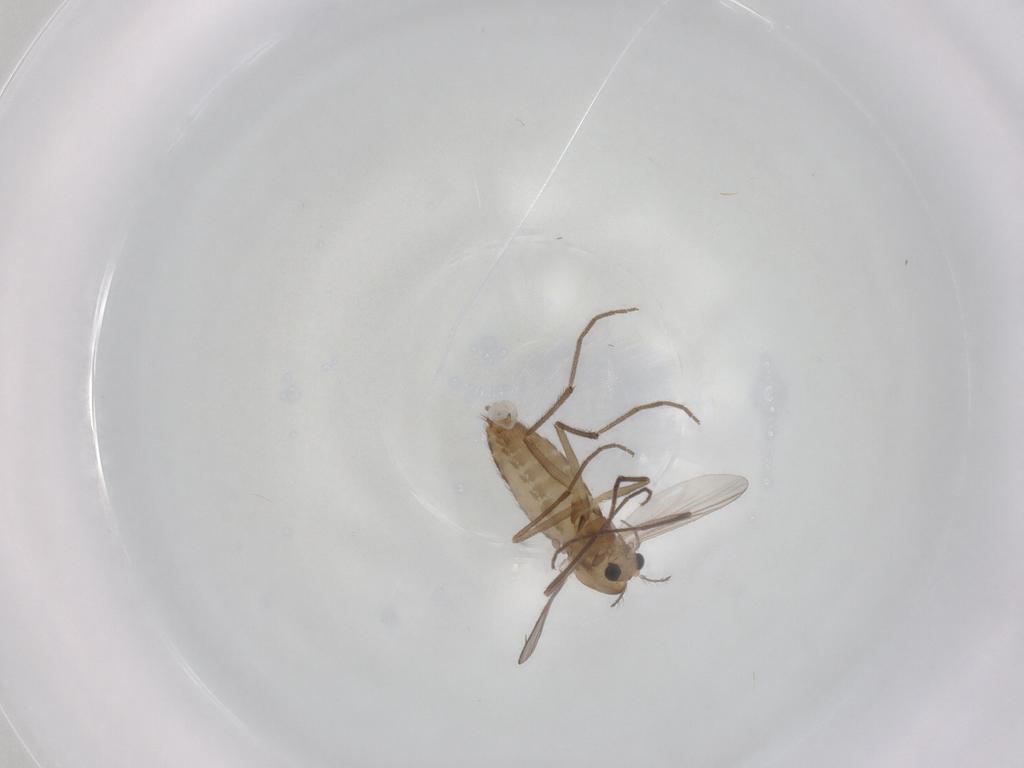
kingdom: Animalia
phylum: Arthropoda
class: Insecta
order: Diptera
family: Chironomidae
